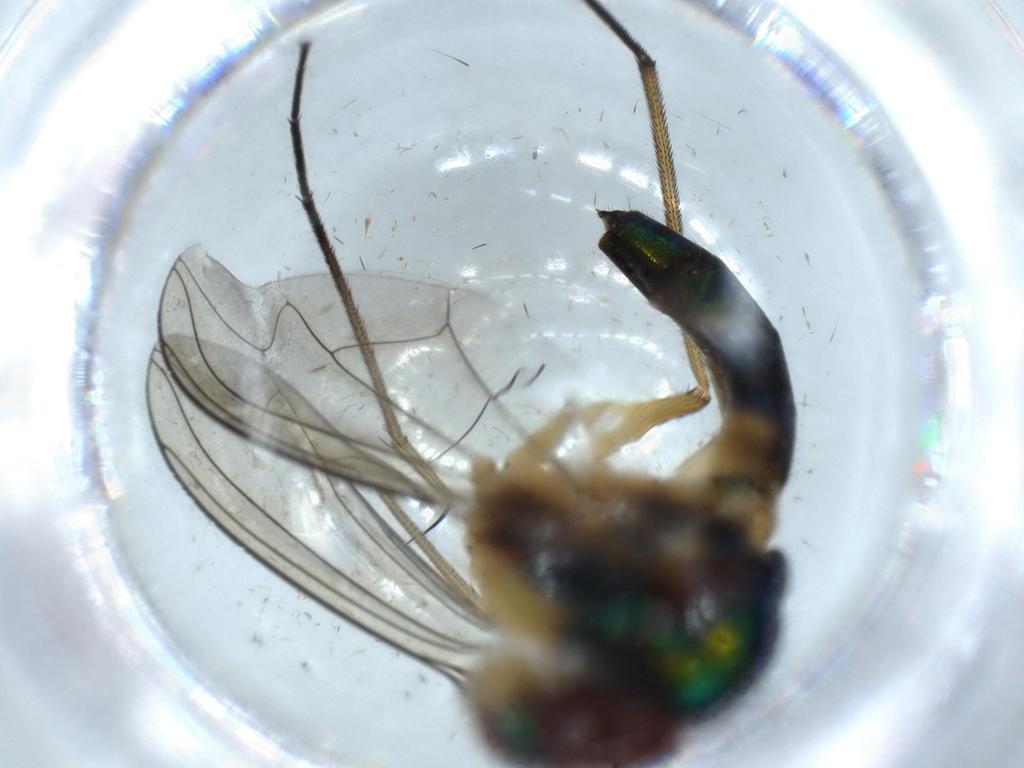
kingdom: Animalia
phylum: Arthropoda
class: Insecta
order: Diptera
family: Dolichopodidae
